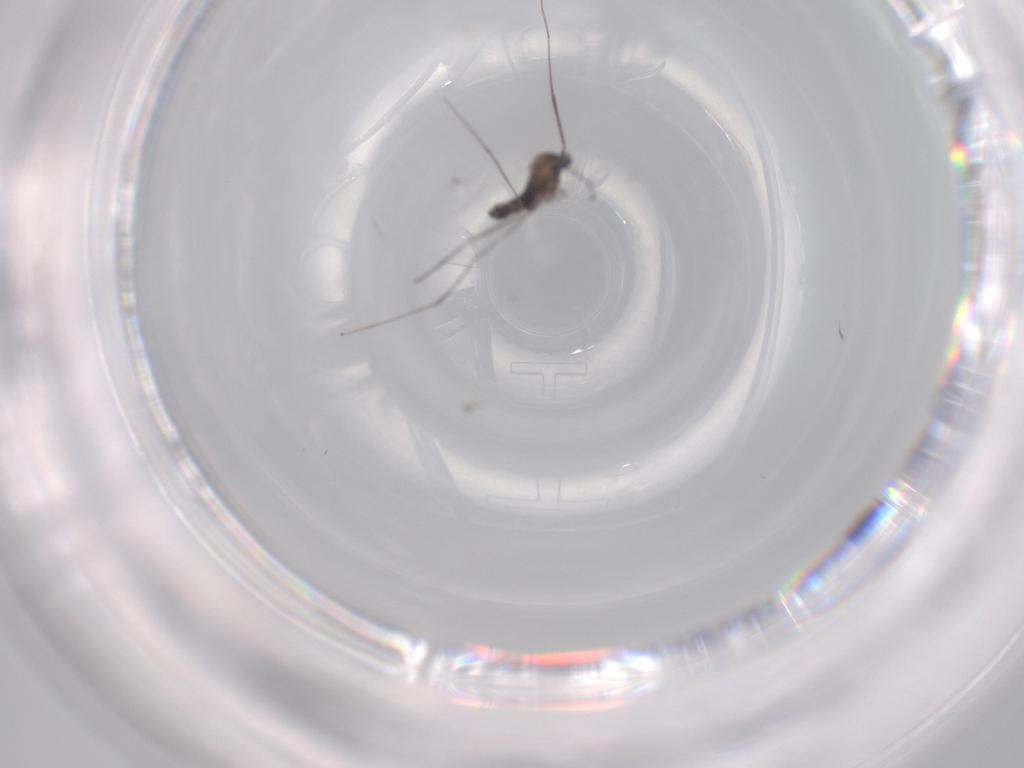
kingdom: Animalia
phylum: Arthropoda
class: Insecta
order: Diptera
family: Cecidomyiidae
